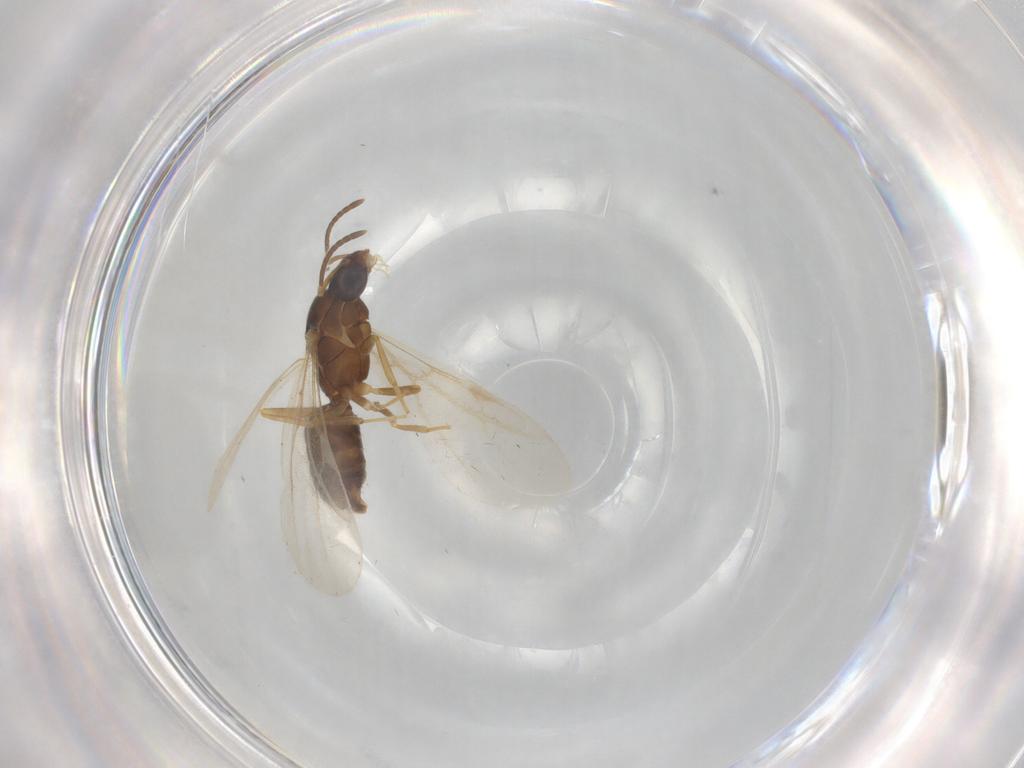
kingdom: Animalia
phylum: Arthropoda
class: Insecta
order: Hymenoptera
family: Formicidae
